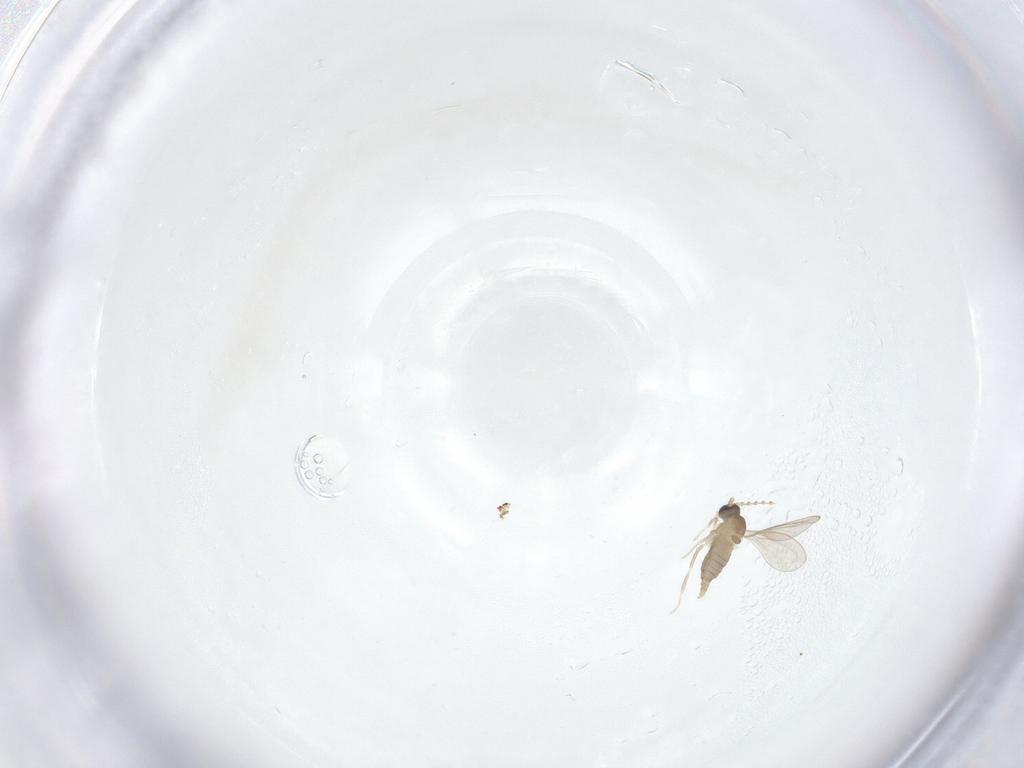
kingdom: Animalia
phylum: Arthropoda
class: Insecta
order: Diptera
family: Cecidomyiidae
